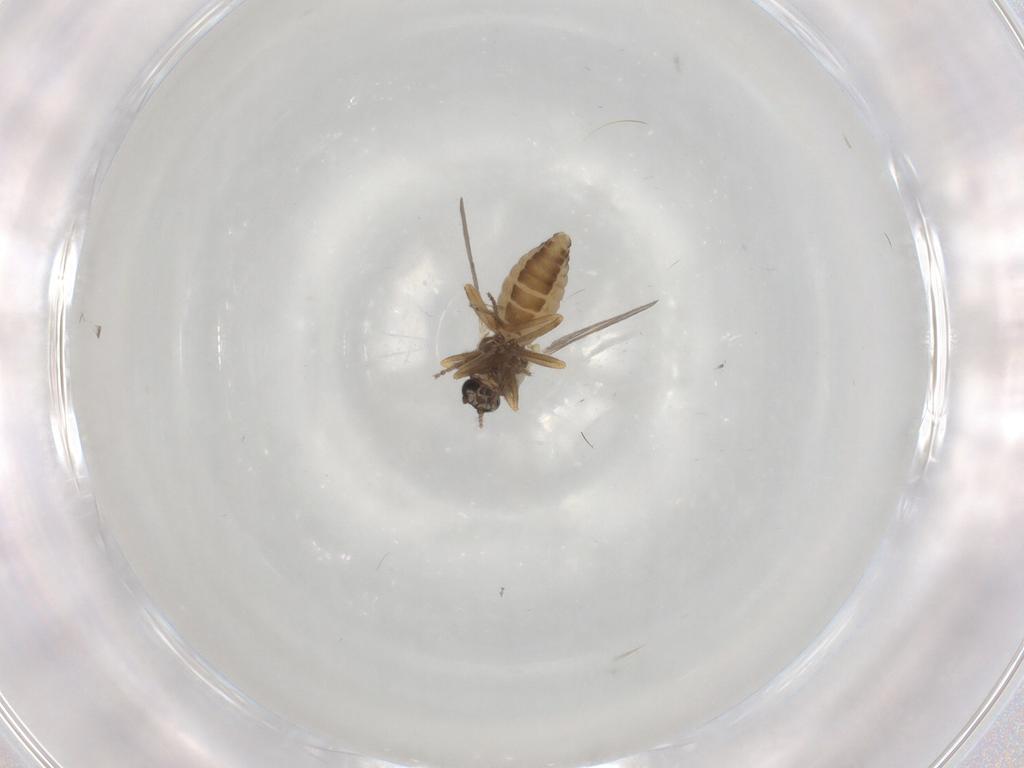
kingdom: Animalia
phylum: Arthropoda
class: Insecta
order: Diptera
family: Ceratopogonidae
